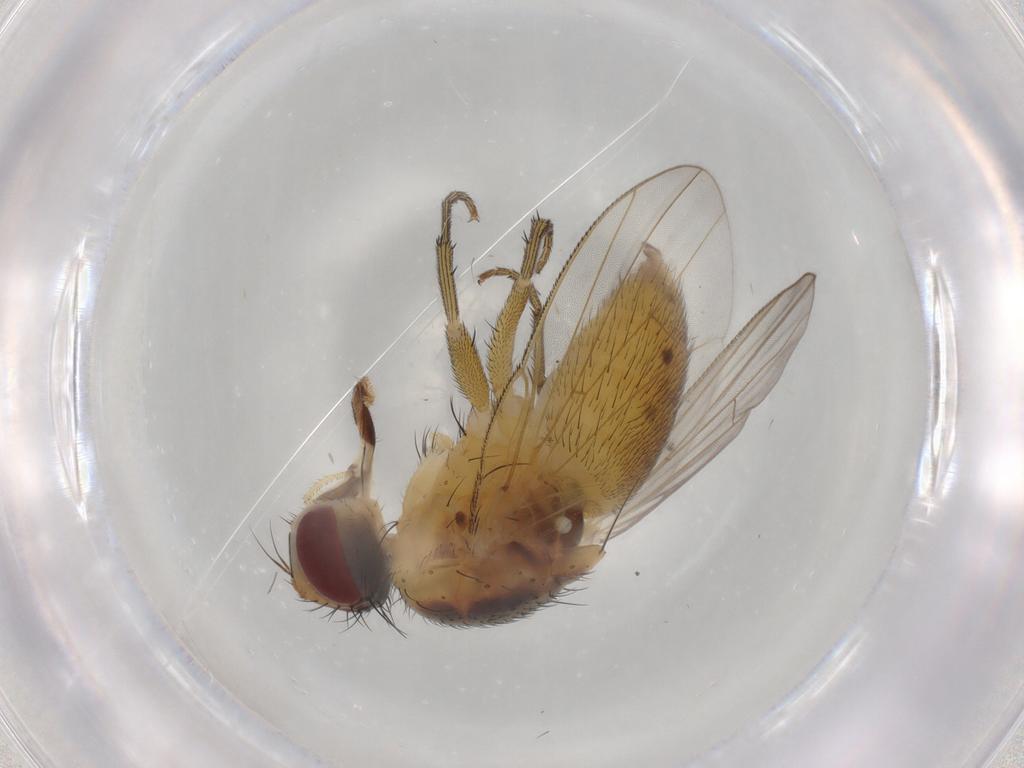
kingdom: Animalia
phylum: Arthropoda
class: Insecta
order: Diptera
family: Muscidae
